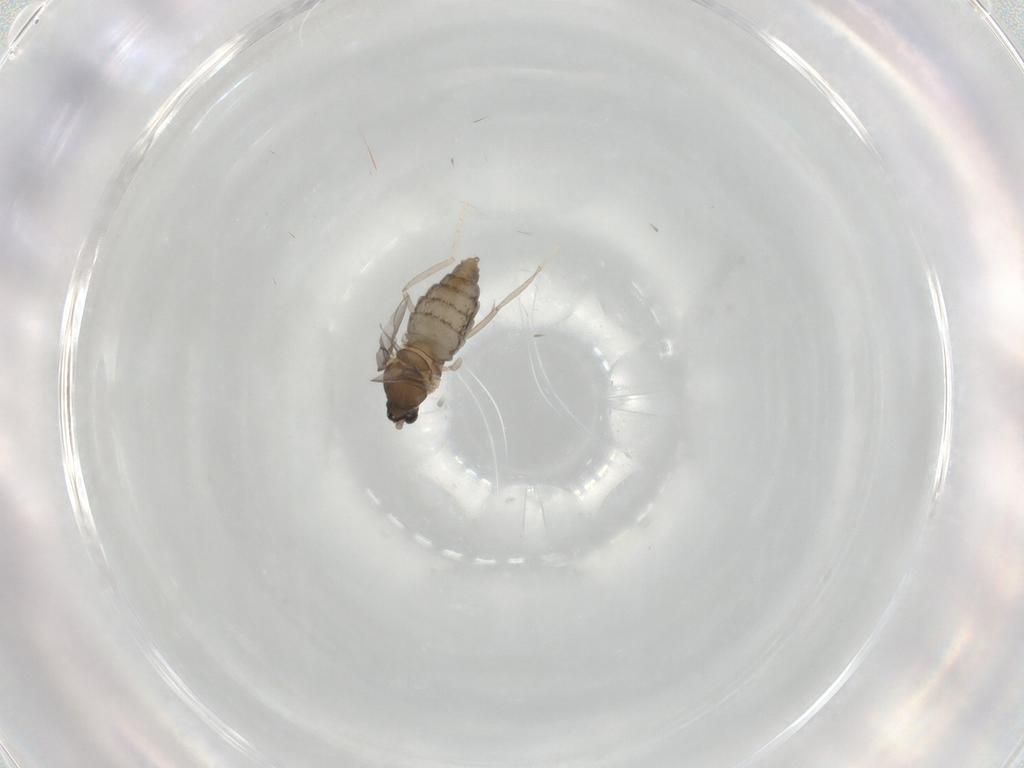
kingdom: Animalia
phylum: Arthropoda
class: Insecta
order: Diptera
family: Cecidomyiidae
